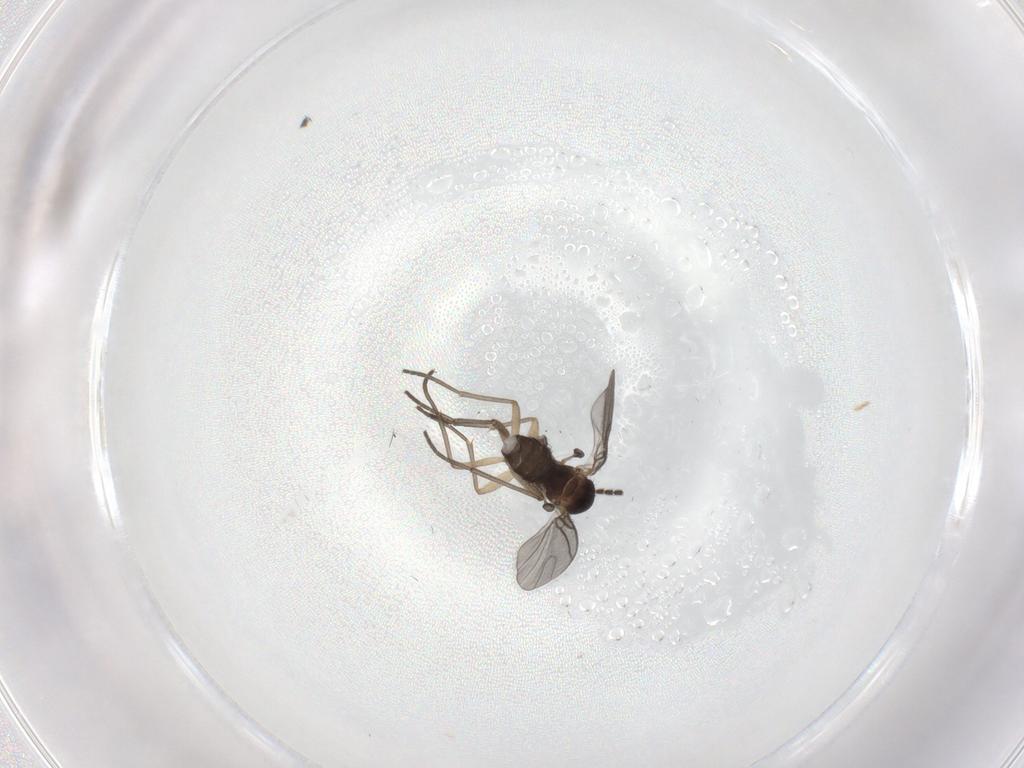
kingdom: Animalia
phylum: Arthropoda
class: Insecta
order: Diptera
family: Sciaridae
